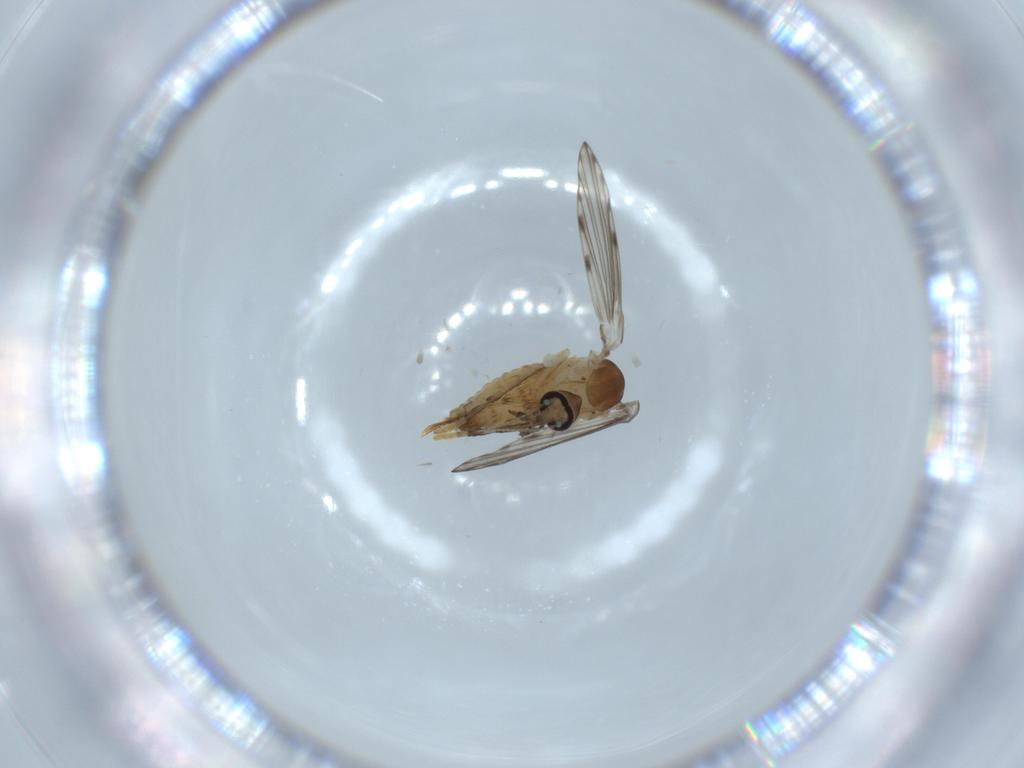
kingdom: Animalia
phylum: Arthropoda
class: Insecta
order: Diptera
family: Psychodidae
